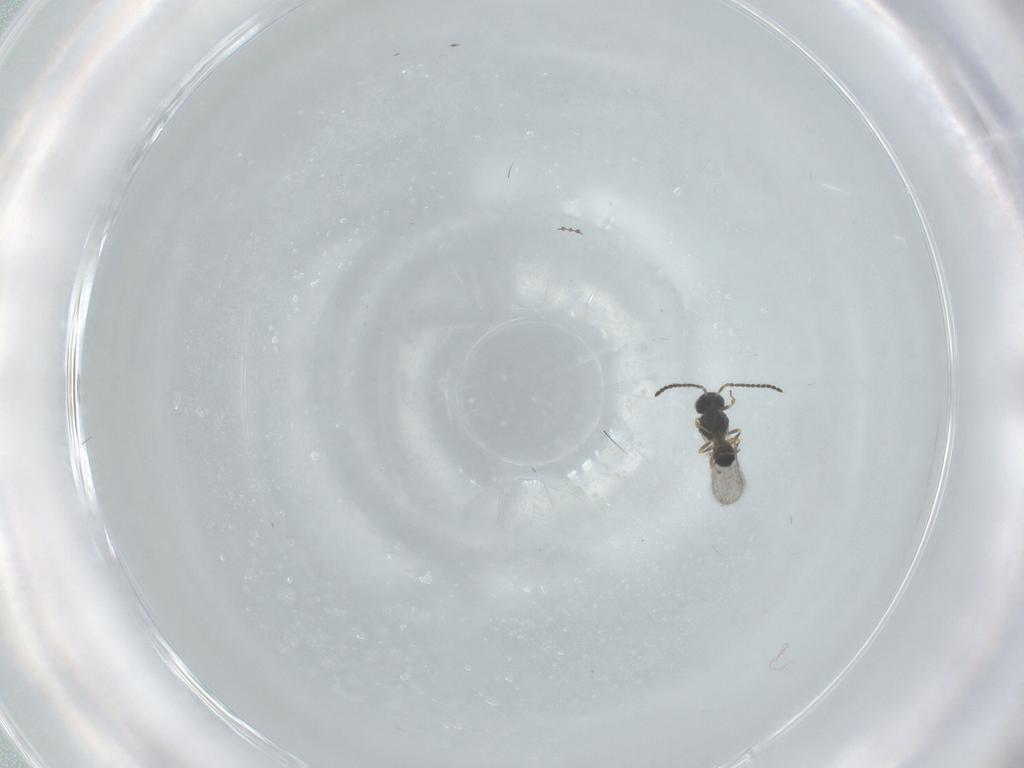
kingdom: Animalia
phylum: Arthropoda
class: Insecta
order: Hymenoptera
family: Scelionidae
